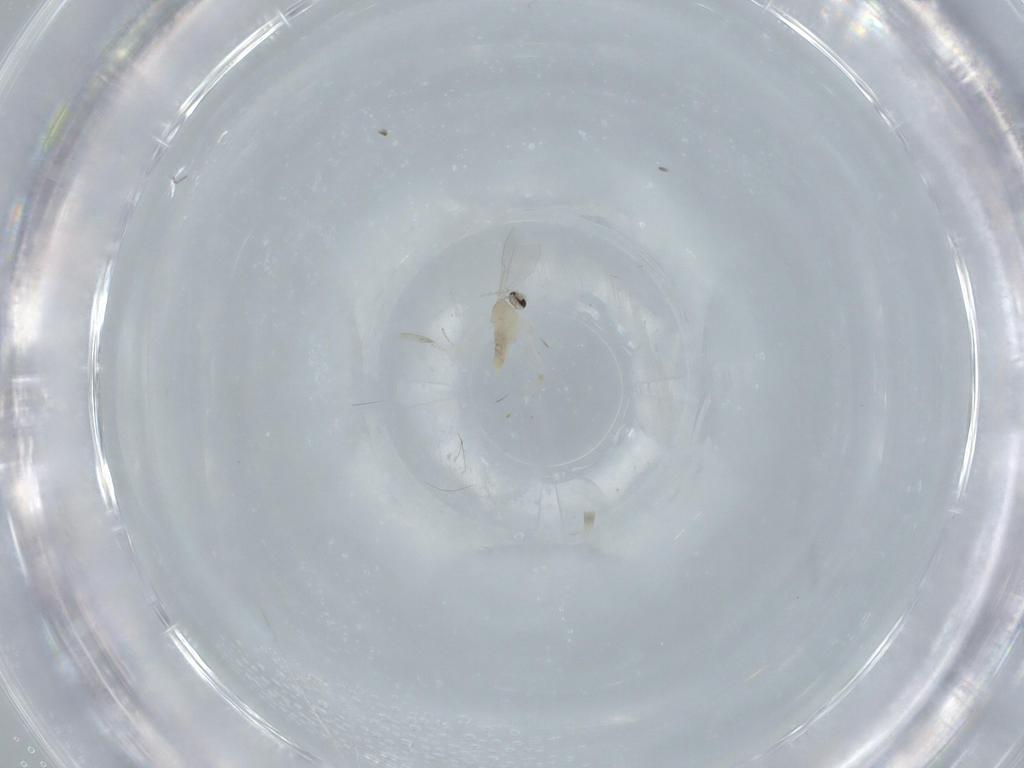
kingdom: Animalia
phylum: Arthropoda
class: Insecta
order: Diptera
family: Cecidomyiidae
